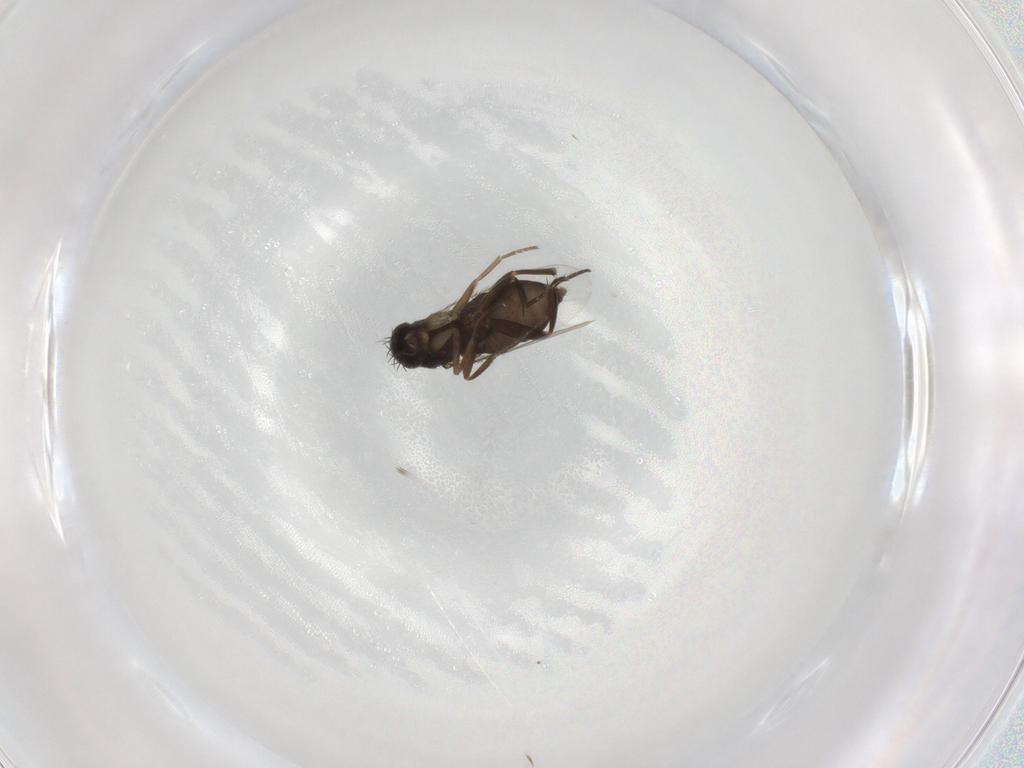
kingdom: Animalia
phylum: Arthropoda
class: Insecta
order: Diptera
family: Phoridae
